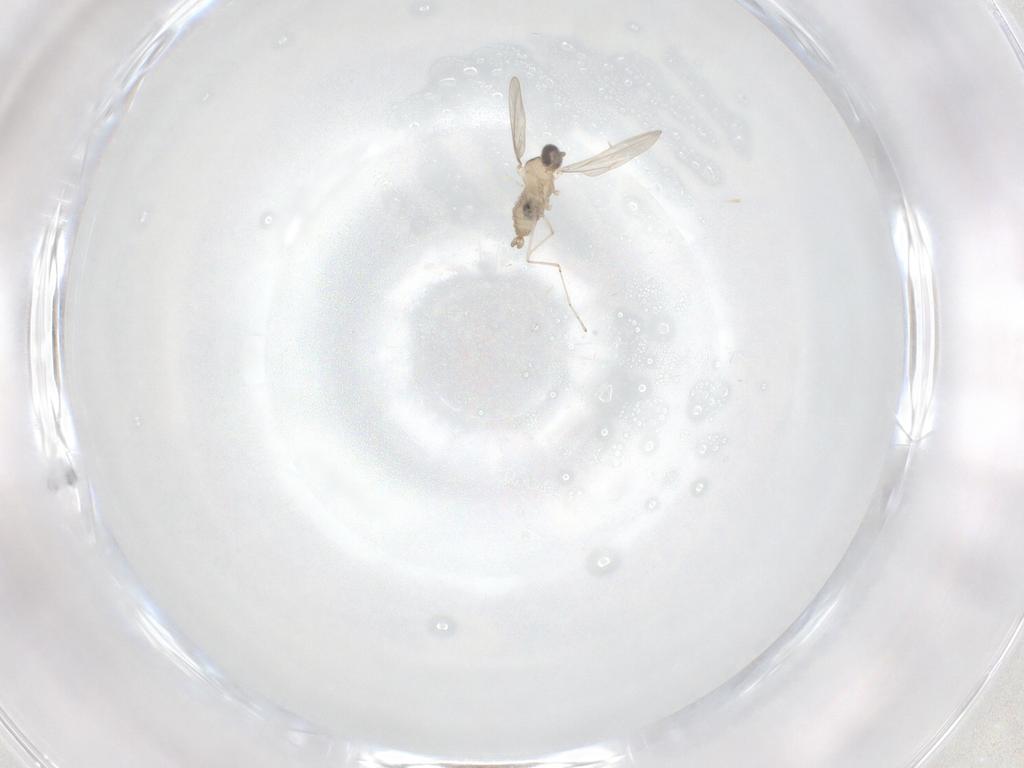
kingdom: Animalia
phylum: Arthropoda
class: Insecta
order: Diptera
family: Cecidomyiidae
